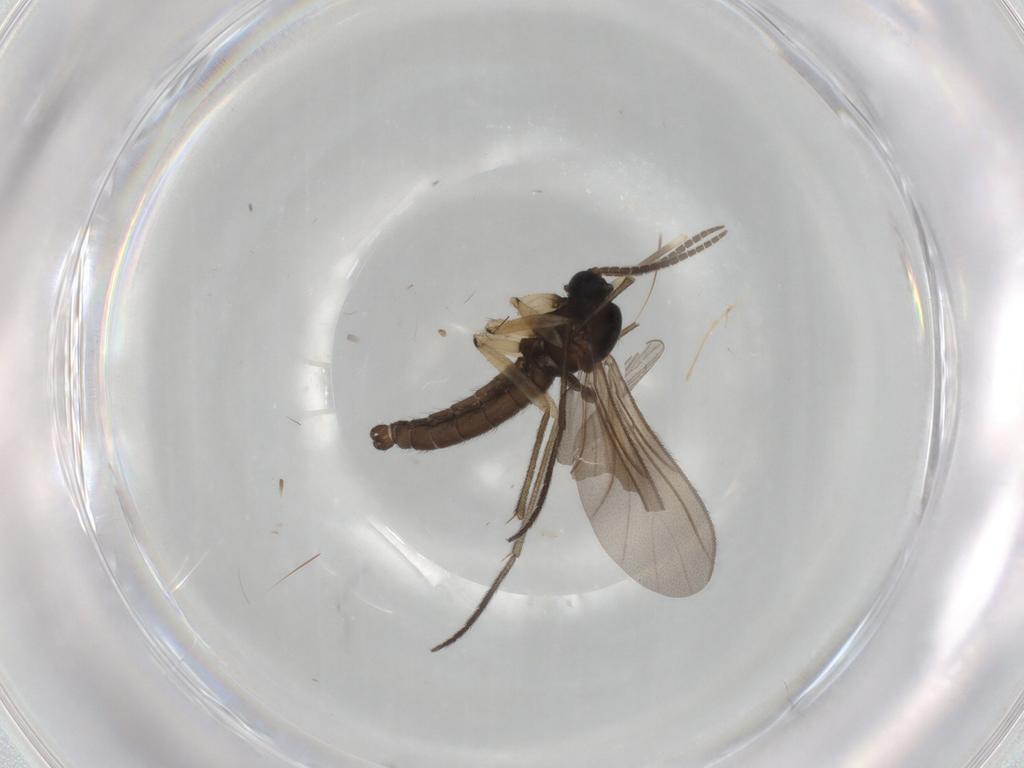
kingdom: Animalia
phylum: Arthropoda
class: Insecta
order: Diptera
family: Sciaridae
